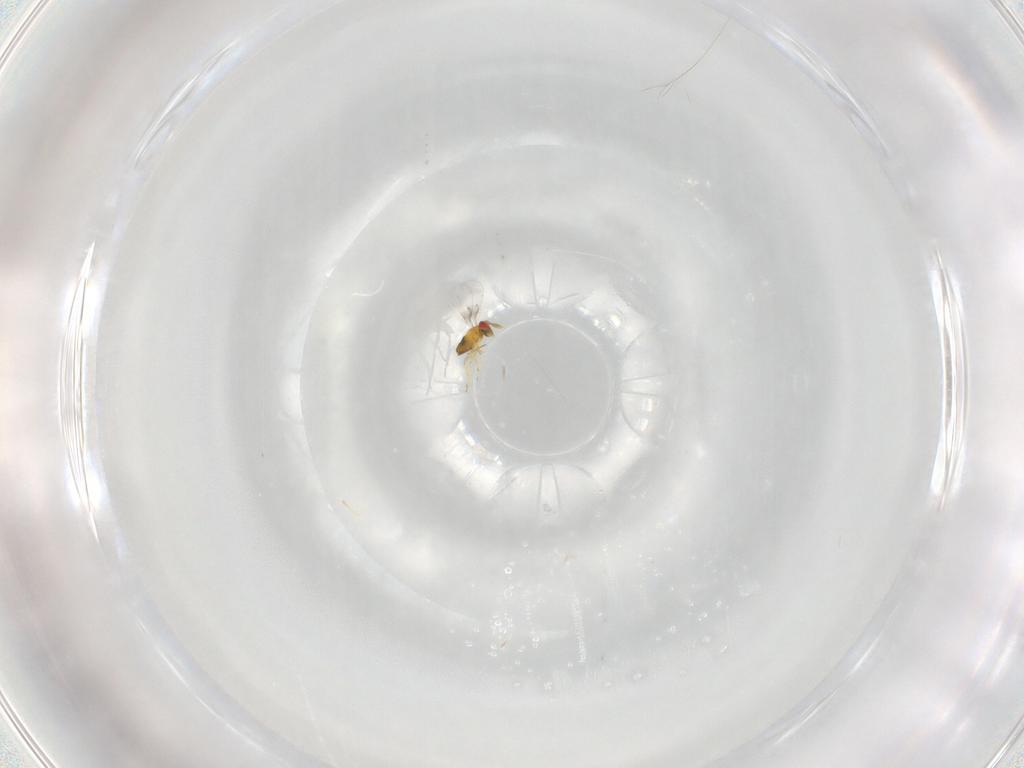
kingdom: Animalia
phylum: Arthropoda
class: Insecta
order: Hymenoptera
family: Trichogrammatidae
